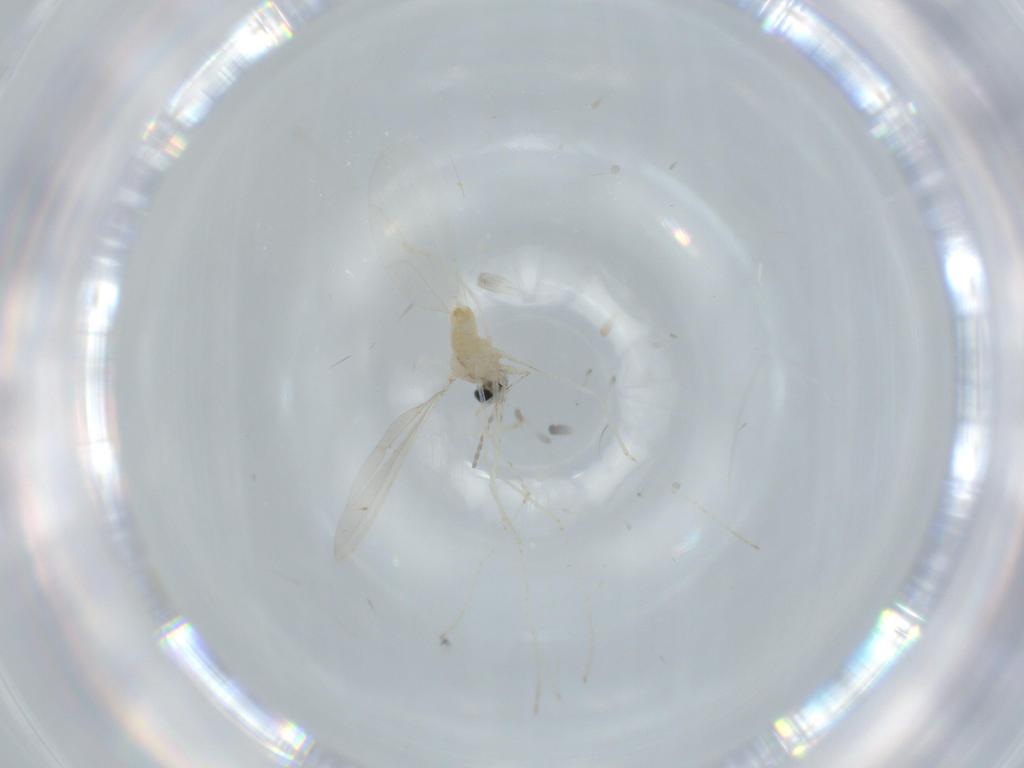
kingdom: Animalia
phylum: Arthropoda
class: Insecta
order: Diptera
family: Cecidomyiidae
